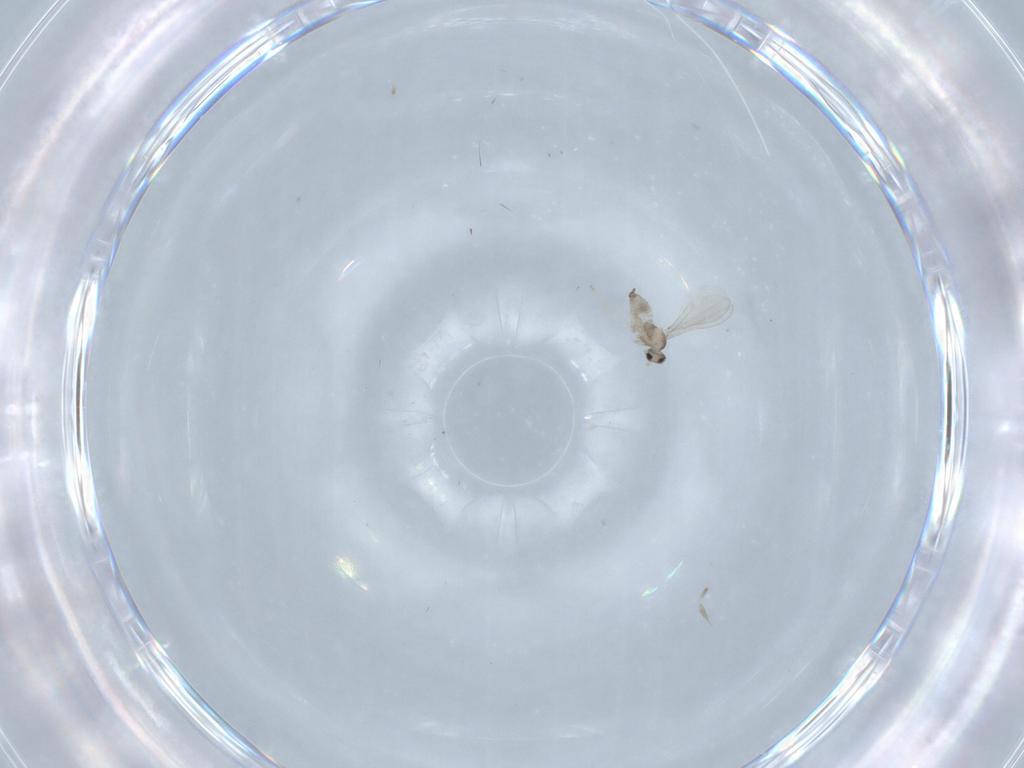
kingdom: Animalia
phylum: Arthropoda
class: Insecta
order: Diptera
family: Cecidomyiidae
